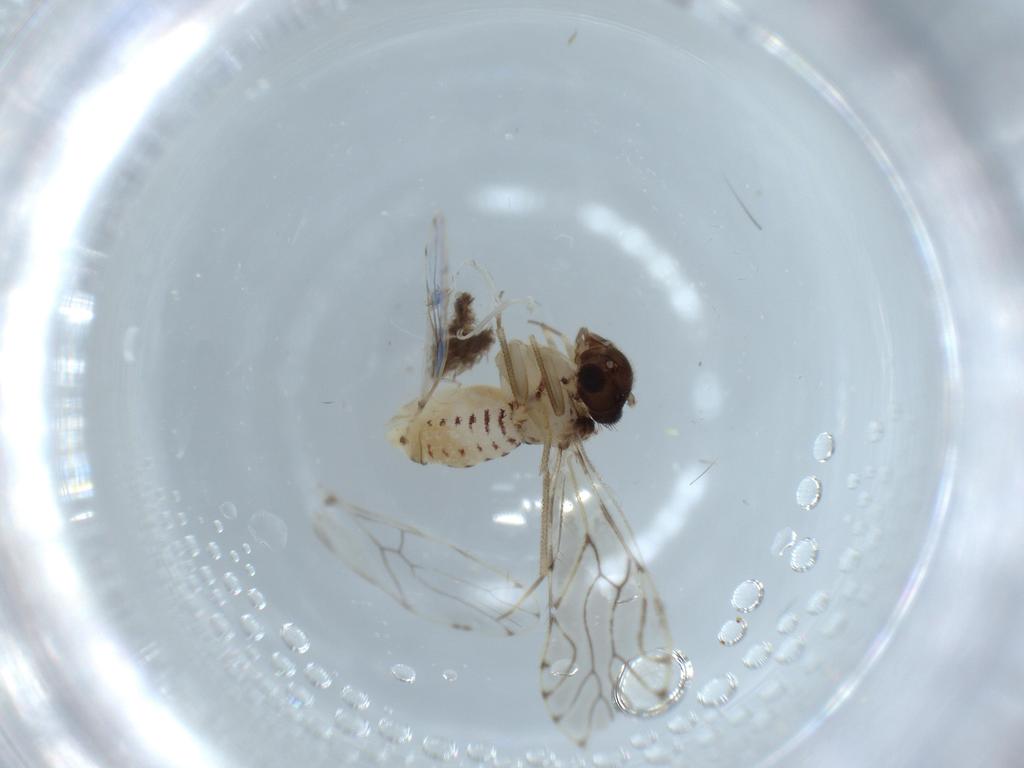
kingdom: Animalia
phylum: Arthropoda
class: Insecta
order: Psocodea
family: Epipsocidae
